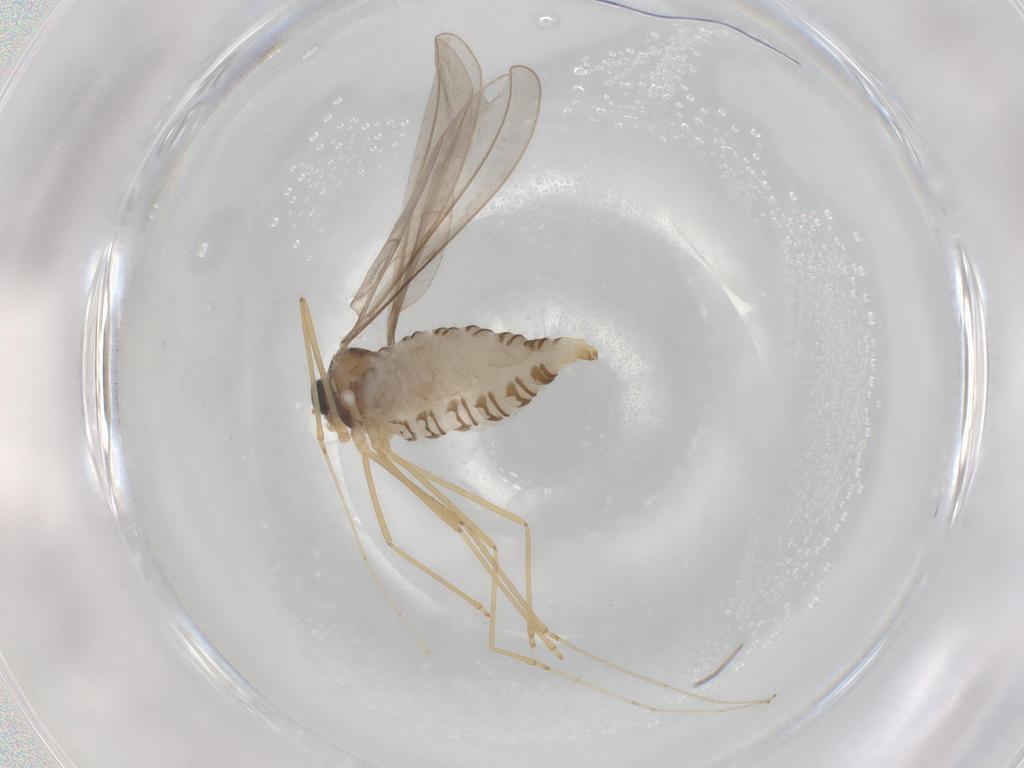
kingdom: Animalia
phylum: Arthropoda
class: Insecta
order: Diptera
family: Cecidomyiidae
